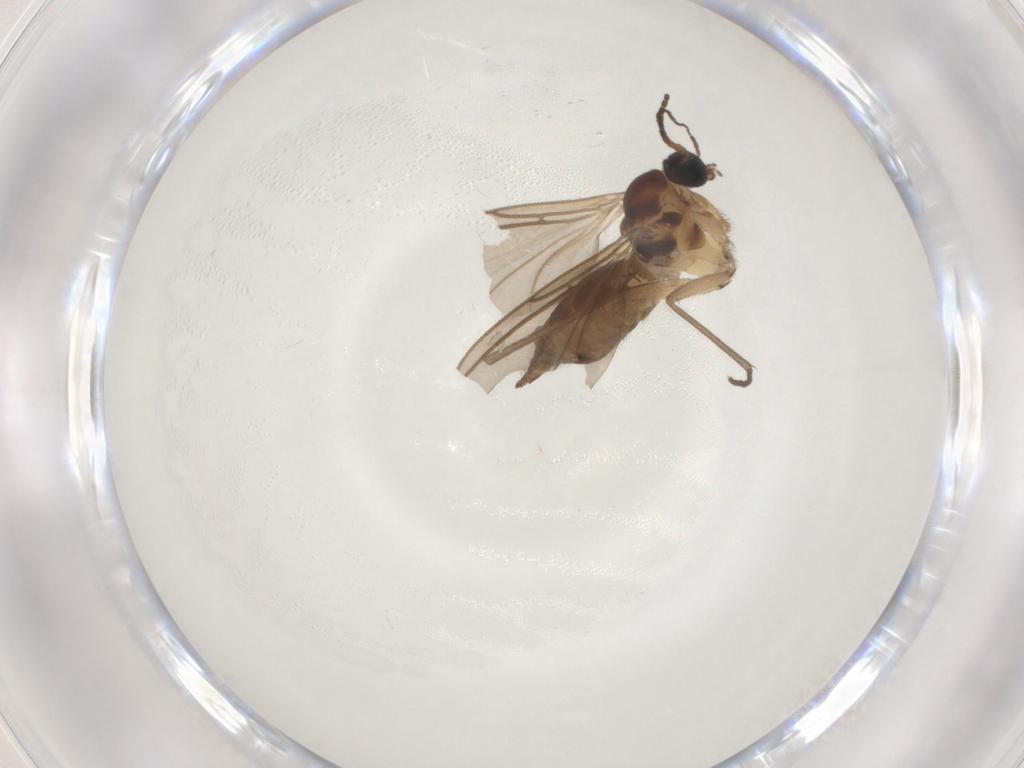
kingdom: Animalia
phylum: Arthropoda
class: Insecta
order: Diptera
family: Sciaridae
